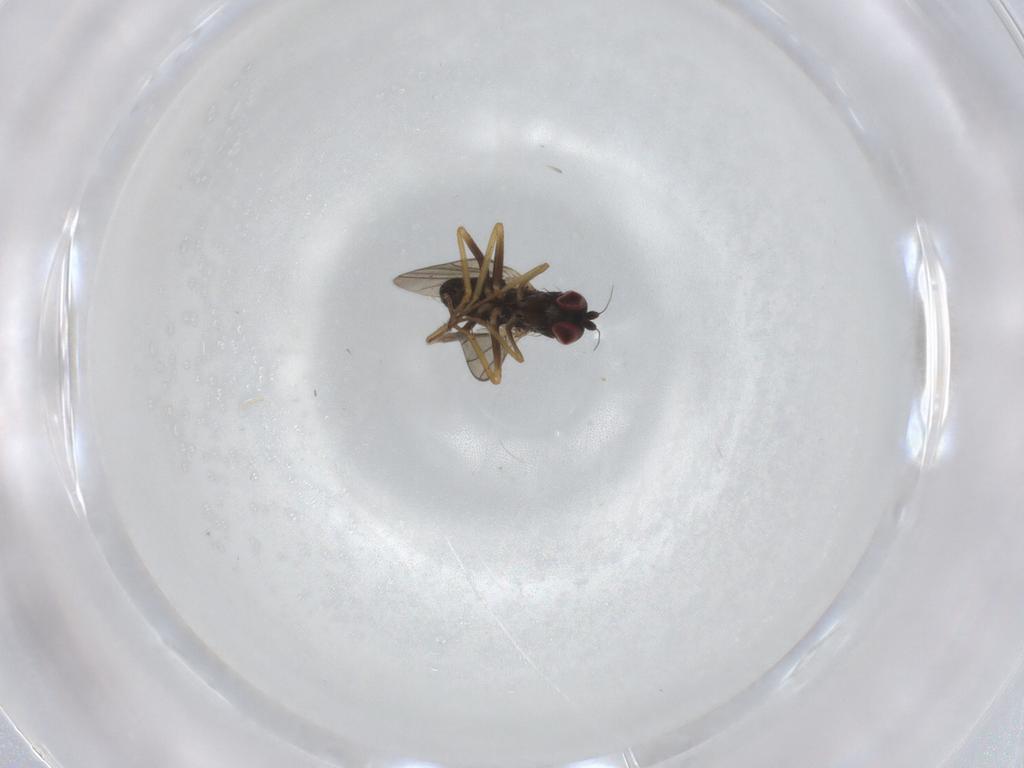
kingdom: Animalia
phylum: Arthropoda
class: Insecta
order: Diptera
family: Dolichopodidae
